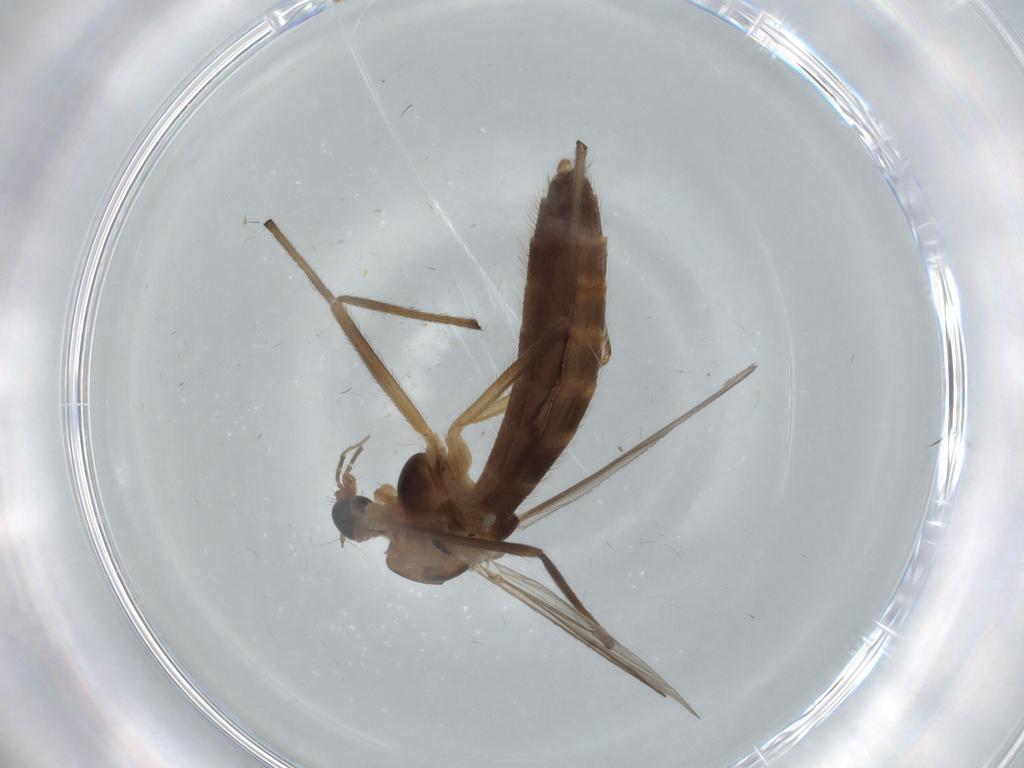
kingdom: Animalia
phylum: Arthropoda
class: Insecta
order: Diptera
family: Chironomidae
